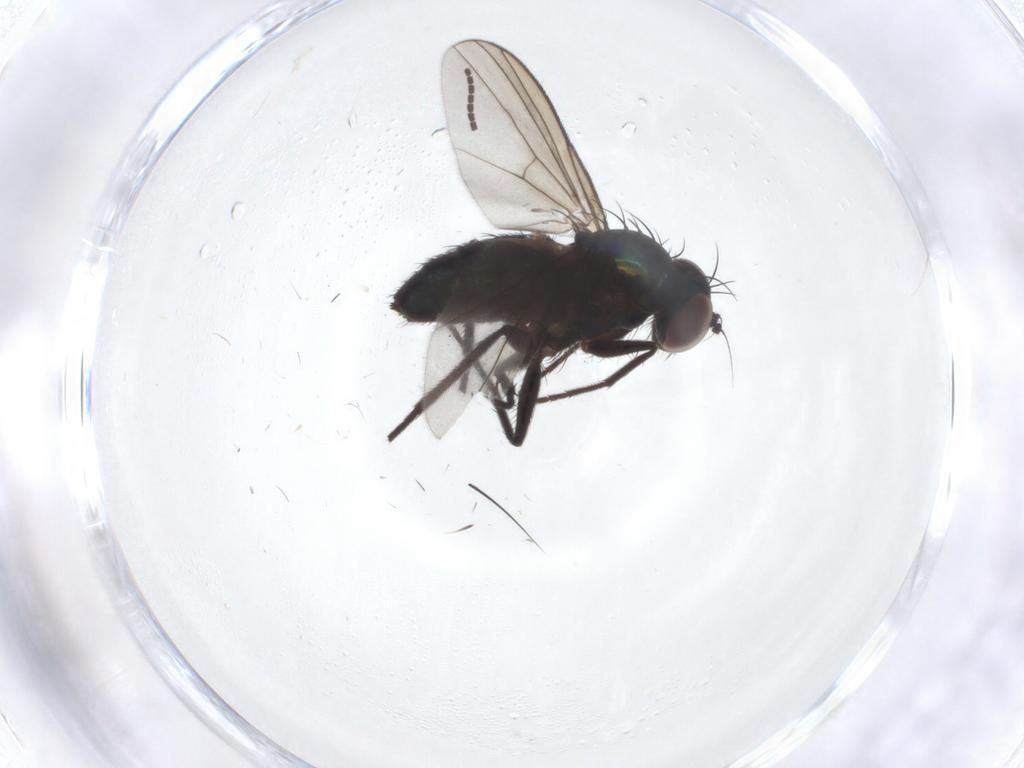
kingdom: Animalia
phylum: Arthropoda
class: Insecta
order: Diptera
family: Sciaridae
